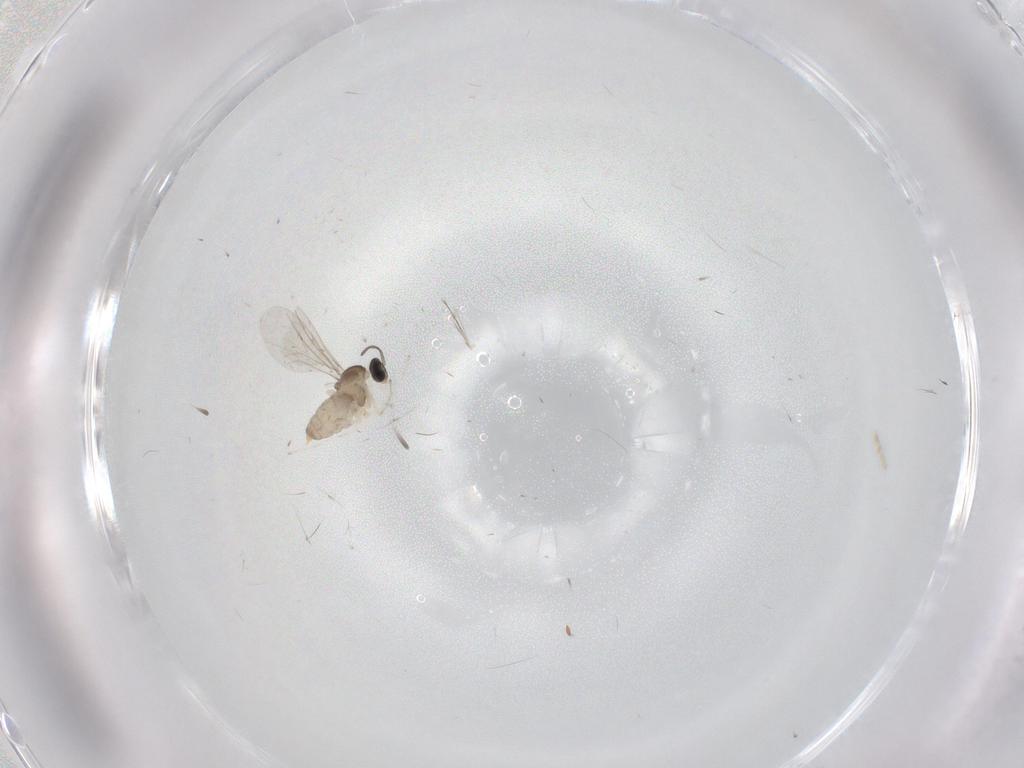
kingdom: Animalia
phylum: Arthropoda
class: Insecta
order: Diptera
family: Cecidomyiidae
